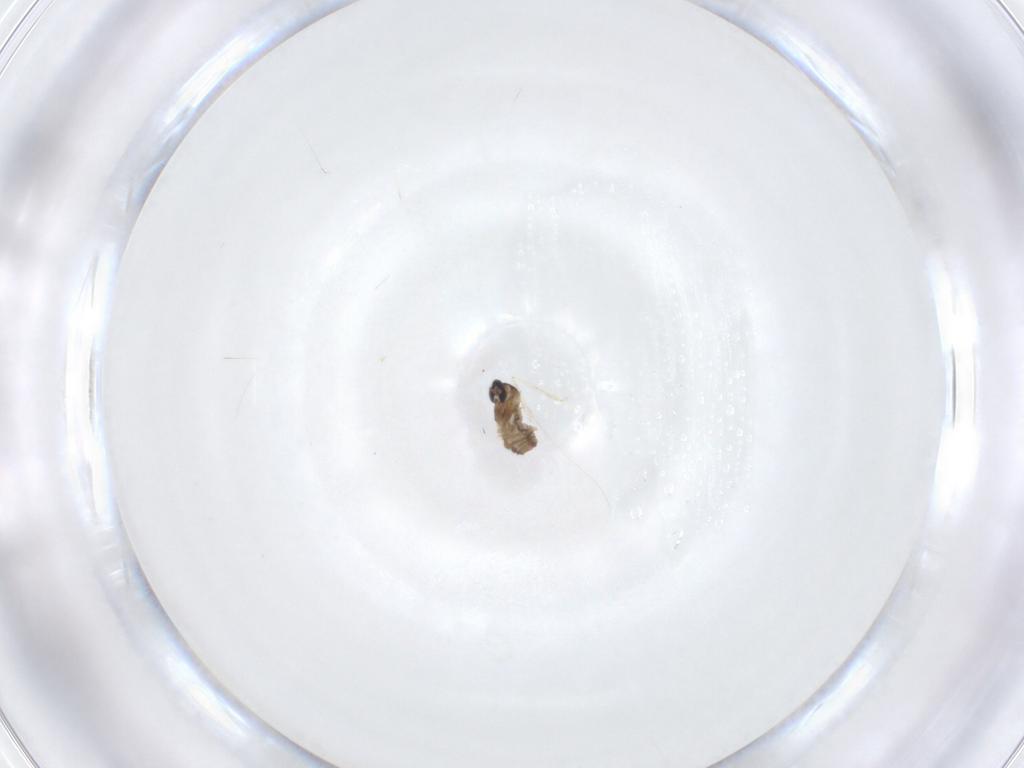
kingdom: Animalia
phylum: Arthropoda
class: Insecta
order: Diptera
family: Cecidomyiidae
